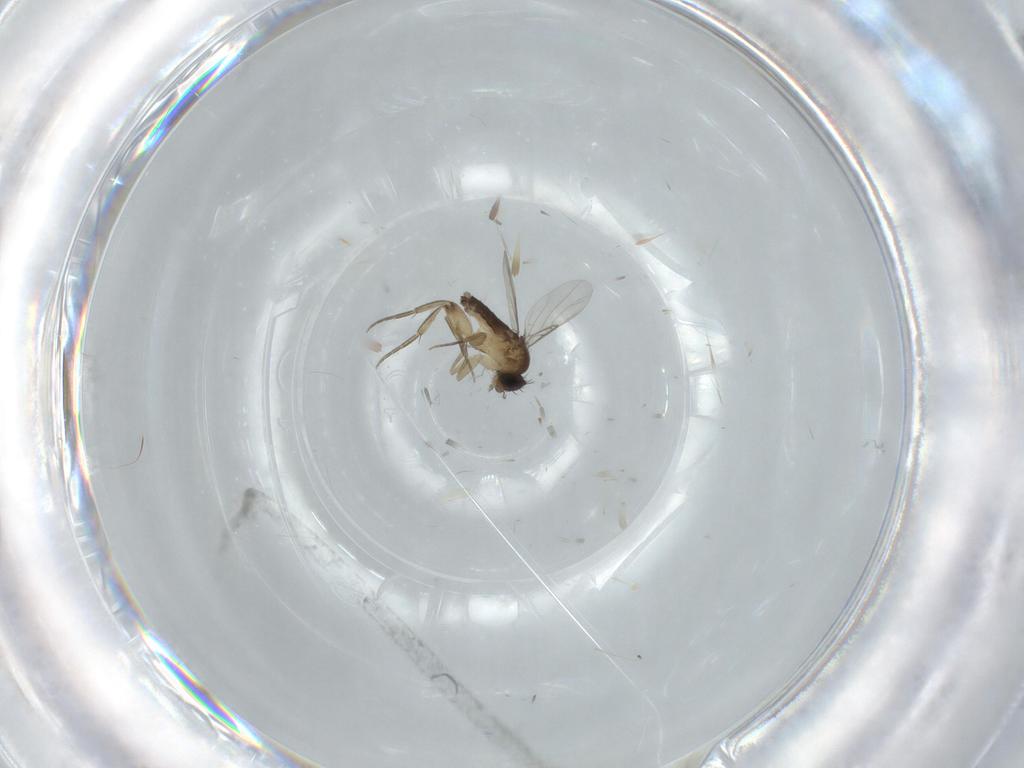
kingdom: Animalia
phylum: Arthropoda
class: Insecta
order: Diptera
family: Phoridae
